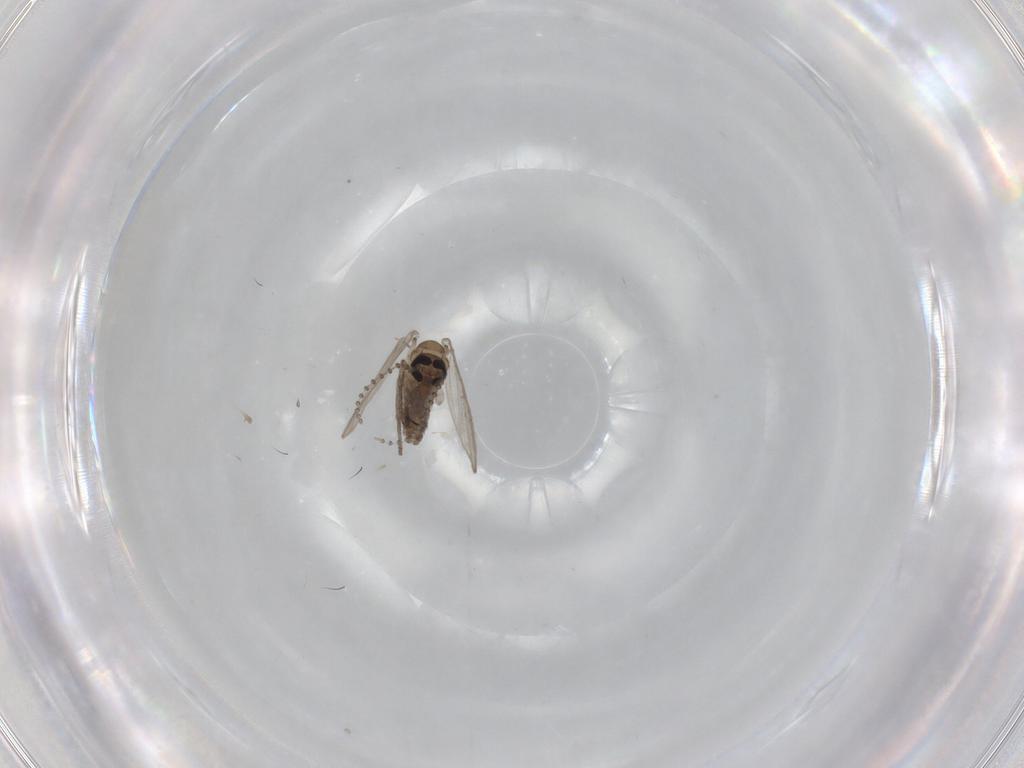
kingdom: Animalia
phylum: Arthropoda
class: Insecta
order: Diptera
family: Psychodidae
